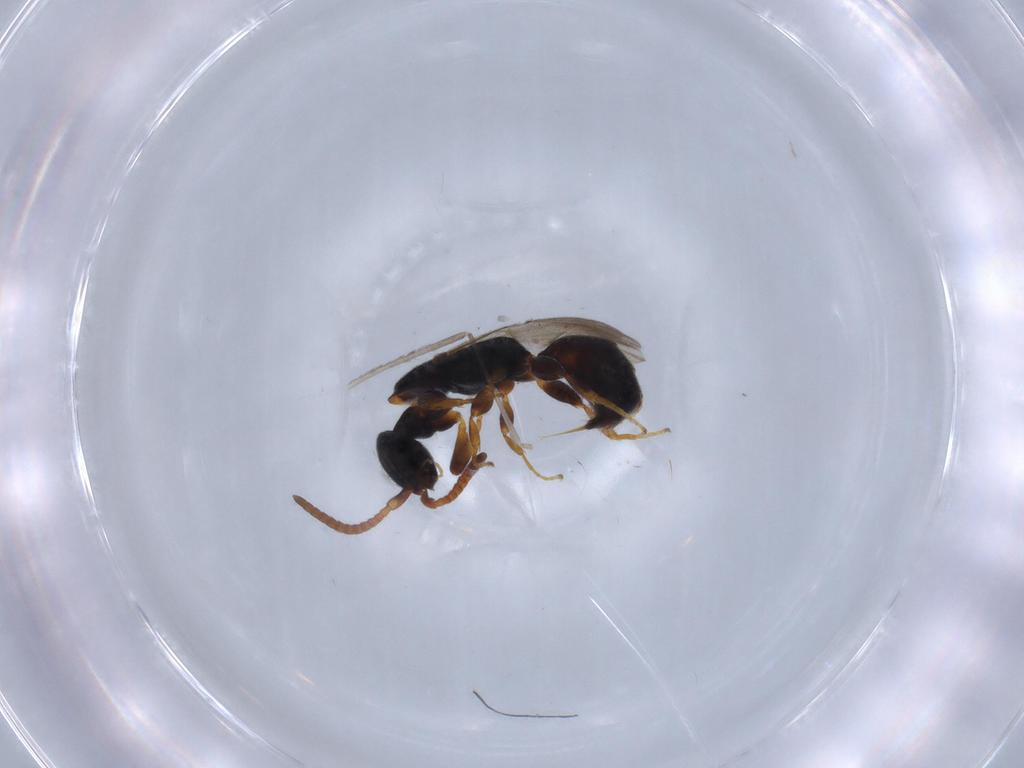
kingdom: Animalia
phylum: Arthropoda
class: Insecta
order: Hymenoptera
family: Bethylidae
